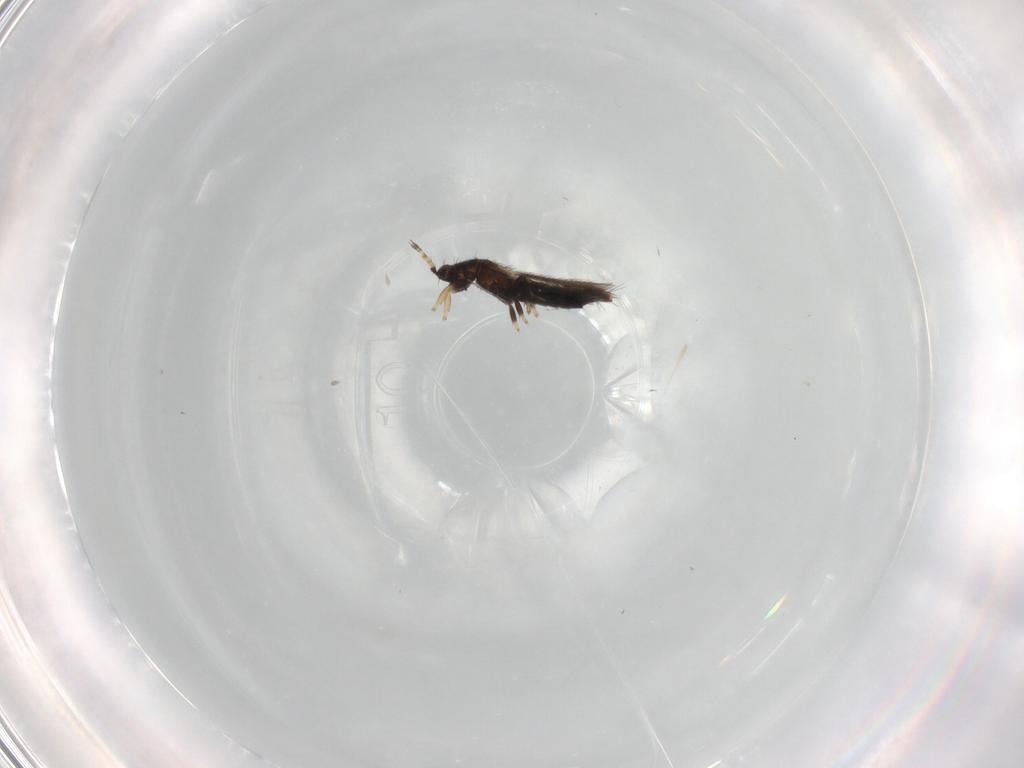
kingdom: Animalia
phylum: Arthropoda
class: Insecta
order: Thysanoptera
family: Thripidae
